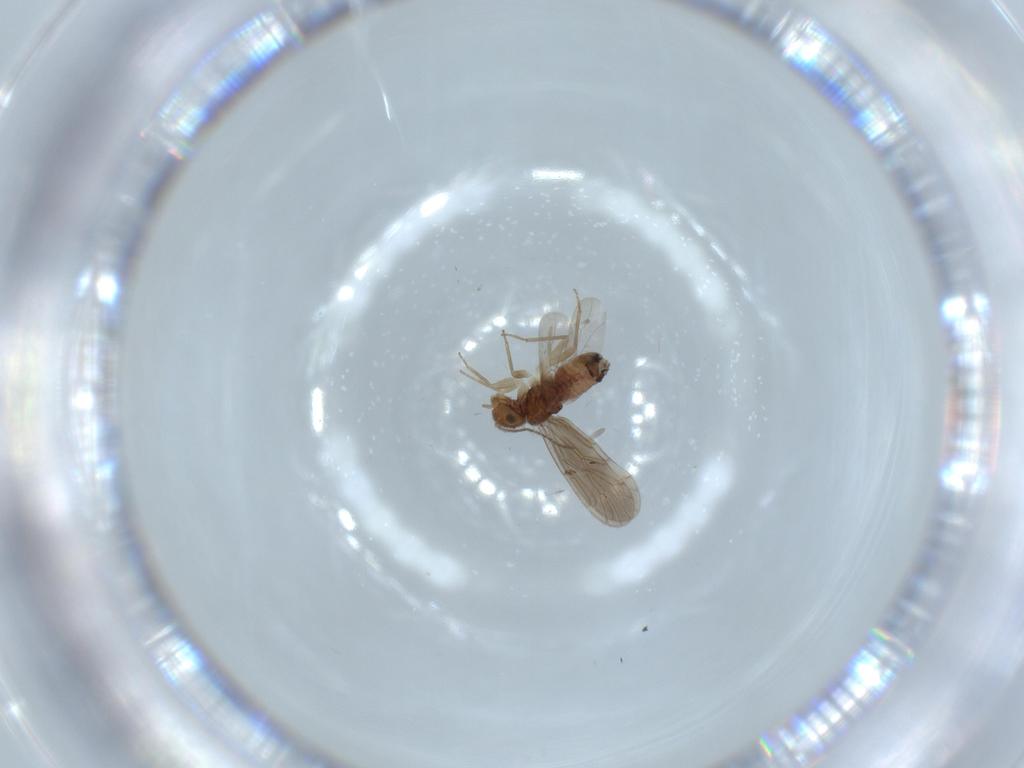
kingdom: Animalia
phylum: Arthropoda
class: Insecta
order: Psocodea
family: Ectopsocidae
